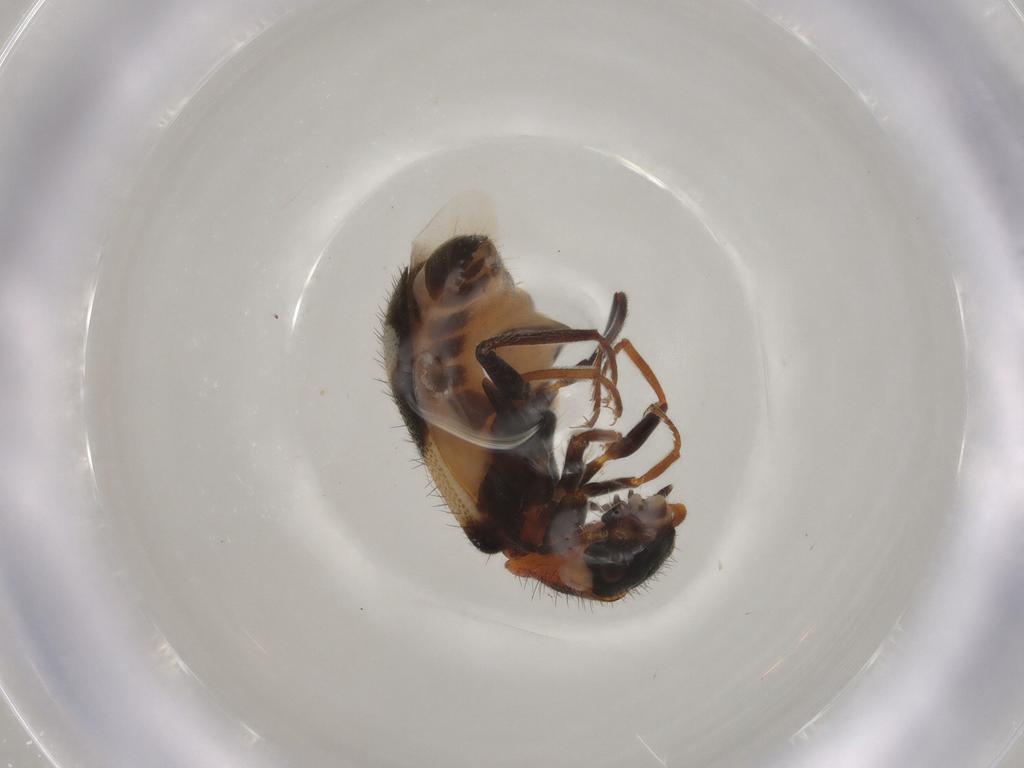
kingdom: Animalia
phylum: Arthropoda
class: Insecta
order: Coleoptera
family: Melyridae
